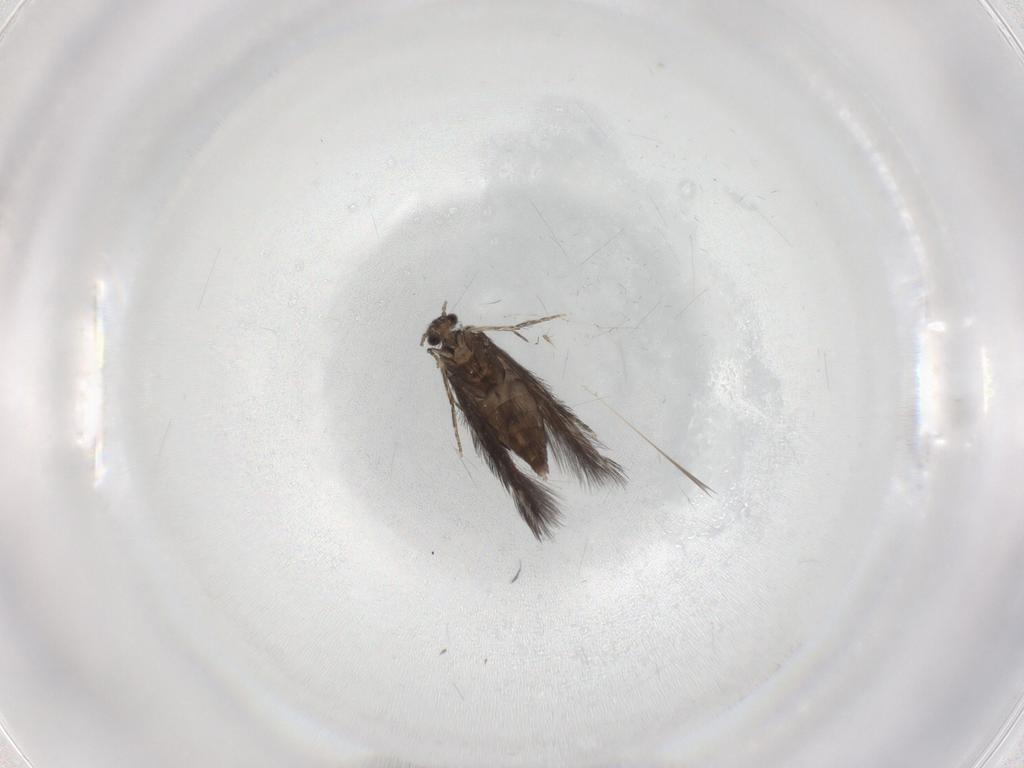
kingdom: Animalia
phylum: Arthropoda
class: Insecta
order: Trichoptera
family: Hydroptilidae
